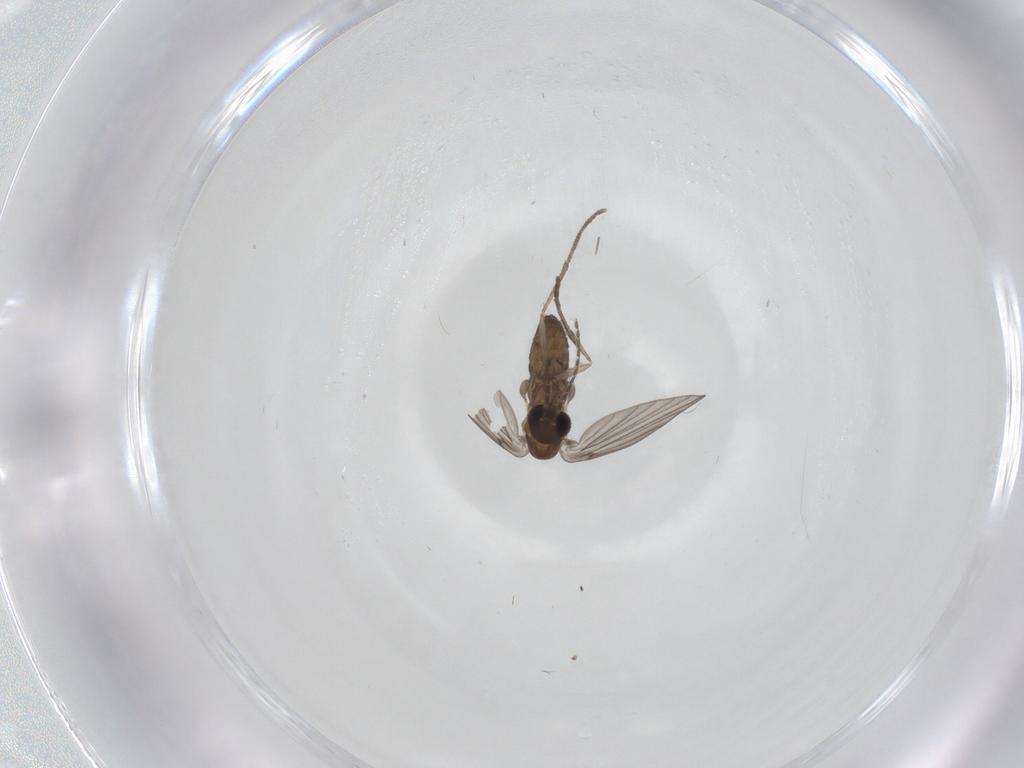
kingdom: Animalia
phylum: Arthropoda
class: Insecta
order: Diptera
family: Psychodidae
